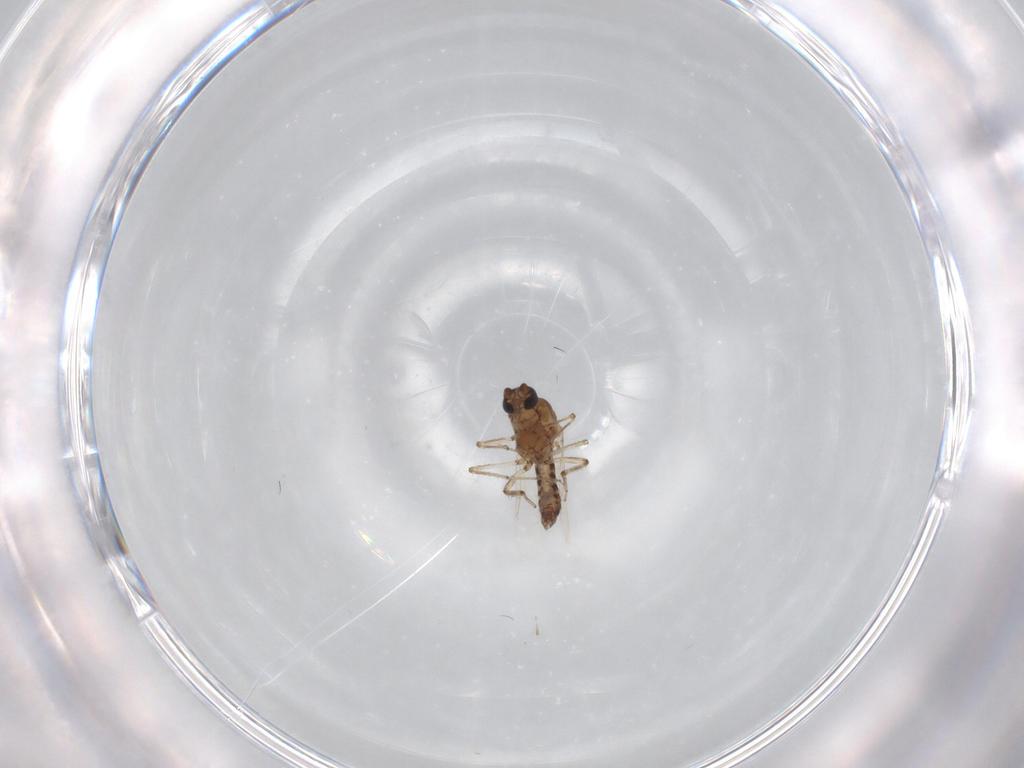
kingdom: Animalia
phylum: Arthropoda
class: Insecta
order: Diptera
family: Ceratopogonidae
